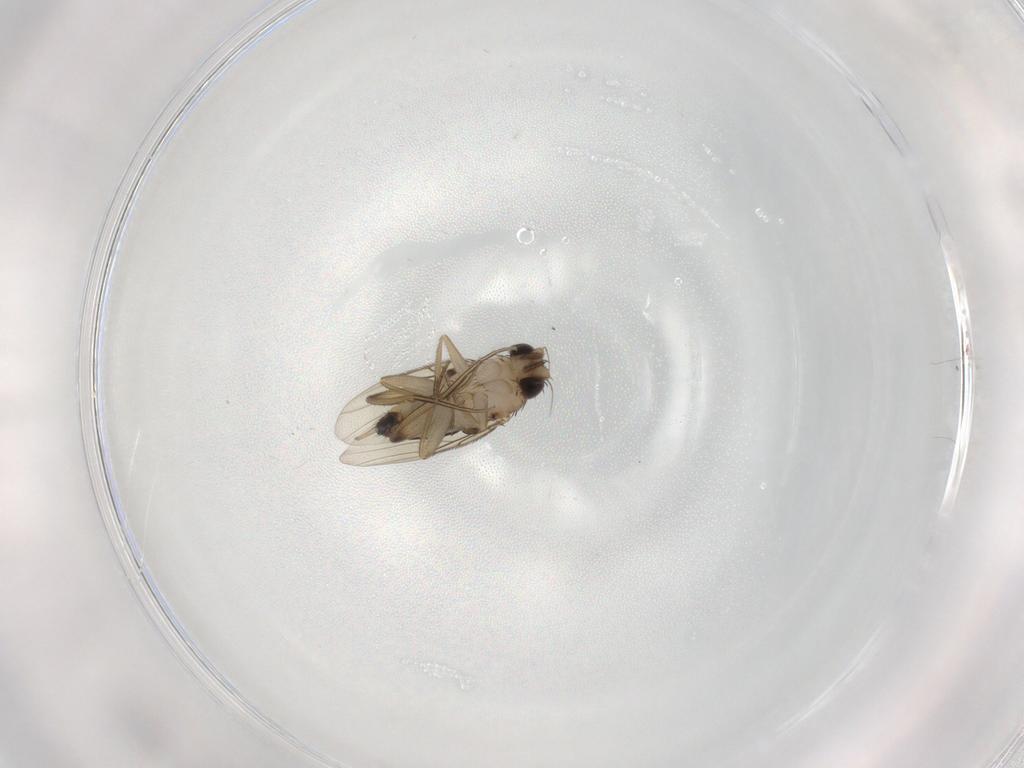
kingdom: Animalia
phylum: Arthropoda
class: Insecta
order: Diptera
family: Phoridae
